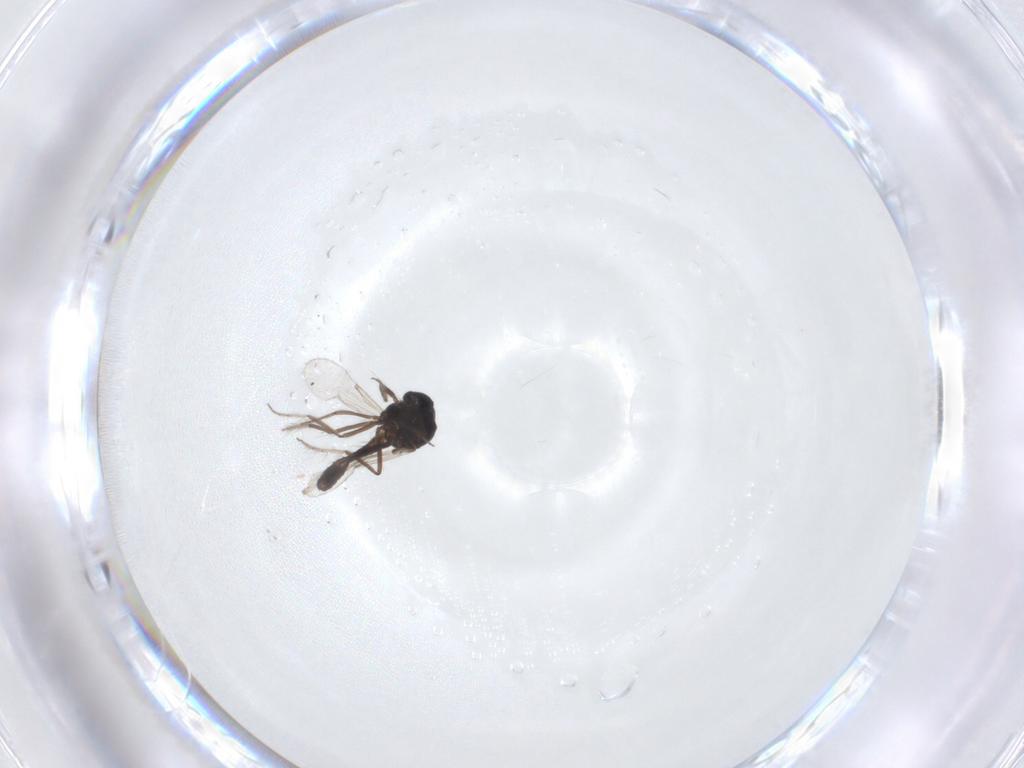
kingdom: Animalia
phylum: Arthropoda
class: Insecta
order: Diptera
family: Ceratopogonidae
